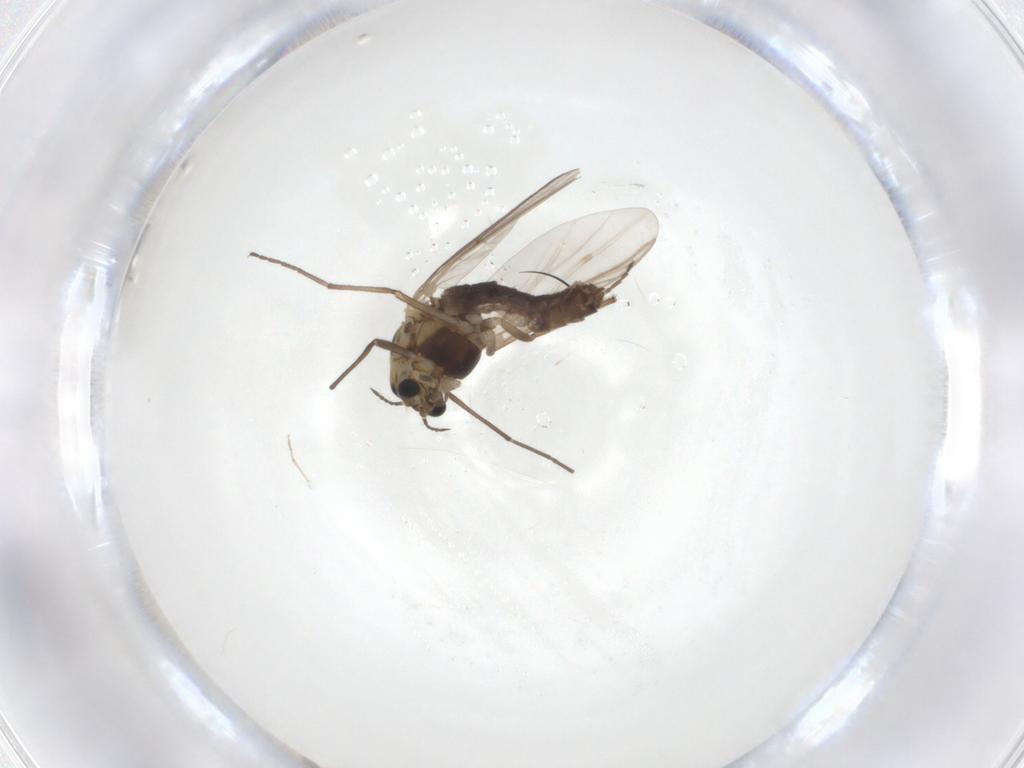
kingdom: Animalia
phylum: Arthropoda
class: Insecta
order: Diptera
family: Chironomidae
